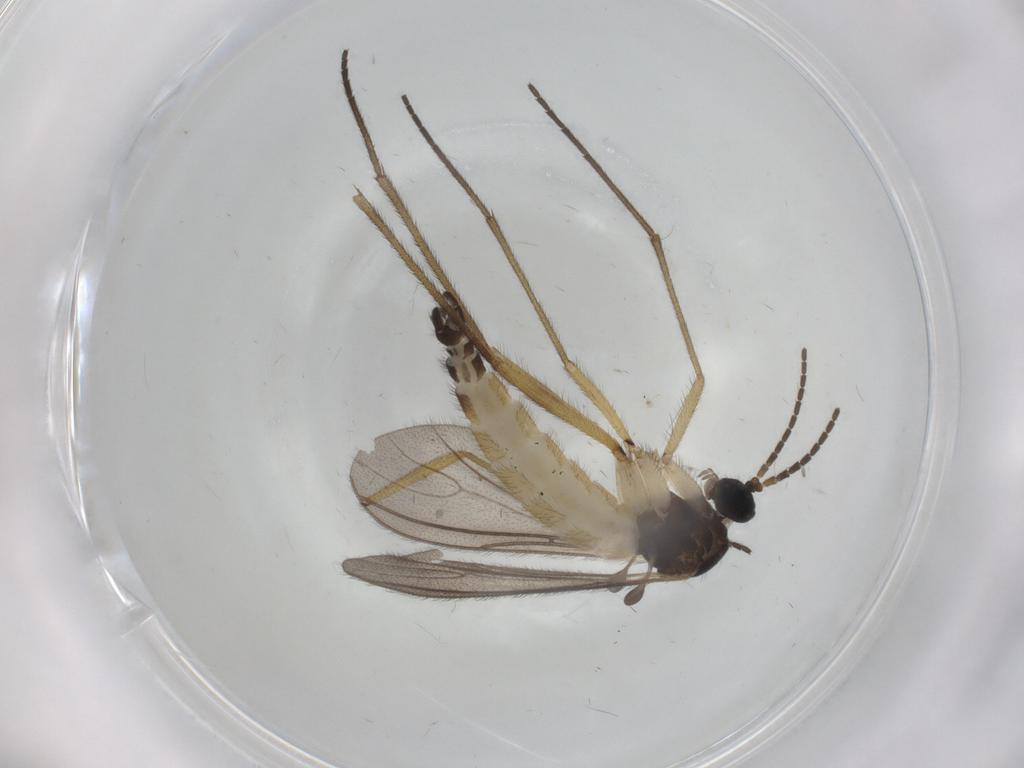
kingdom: Animalia
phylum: Arthropoda
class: Insecta
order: Diptera
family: Sciaridae
